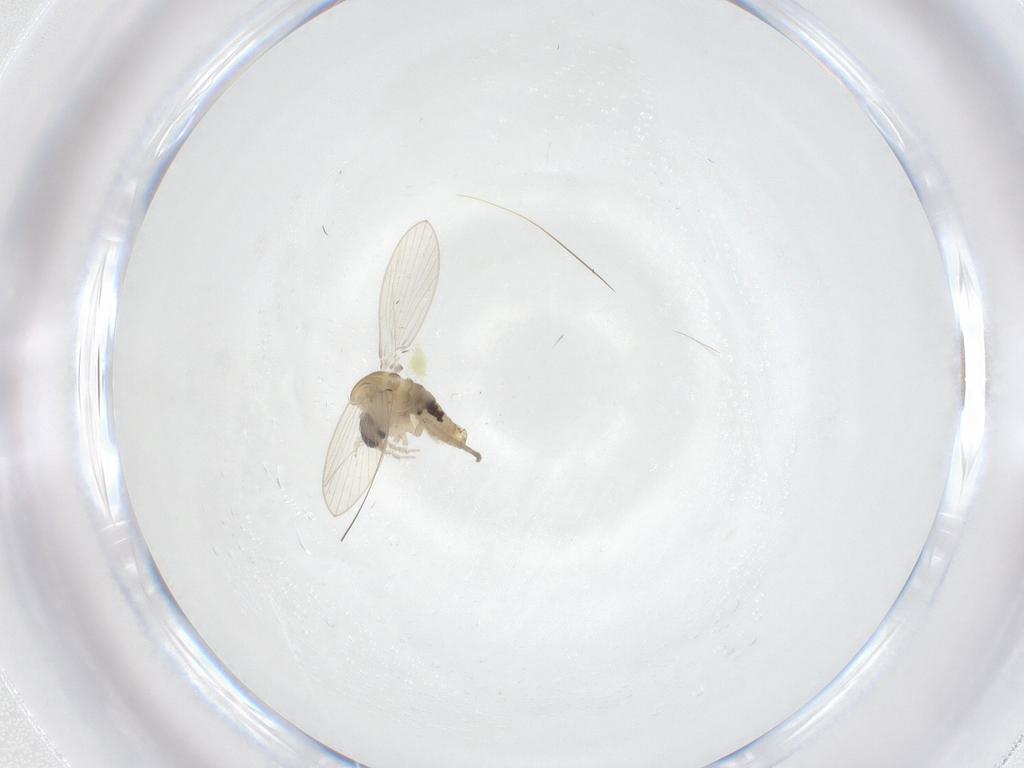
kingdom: Animalia
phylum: Arthropoda
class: Insecta
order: Diptera
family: Psychodidae
